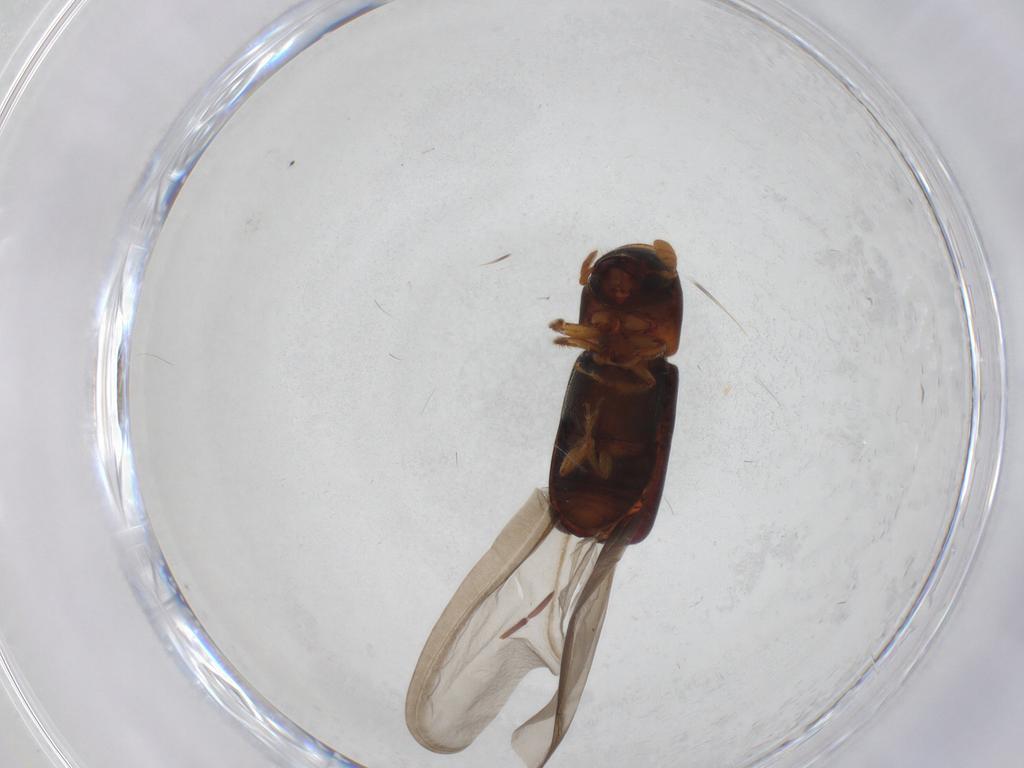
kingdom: Animalia
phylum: Arthropoda
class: Insecta
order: Coleoptera
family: Curculionidae
